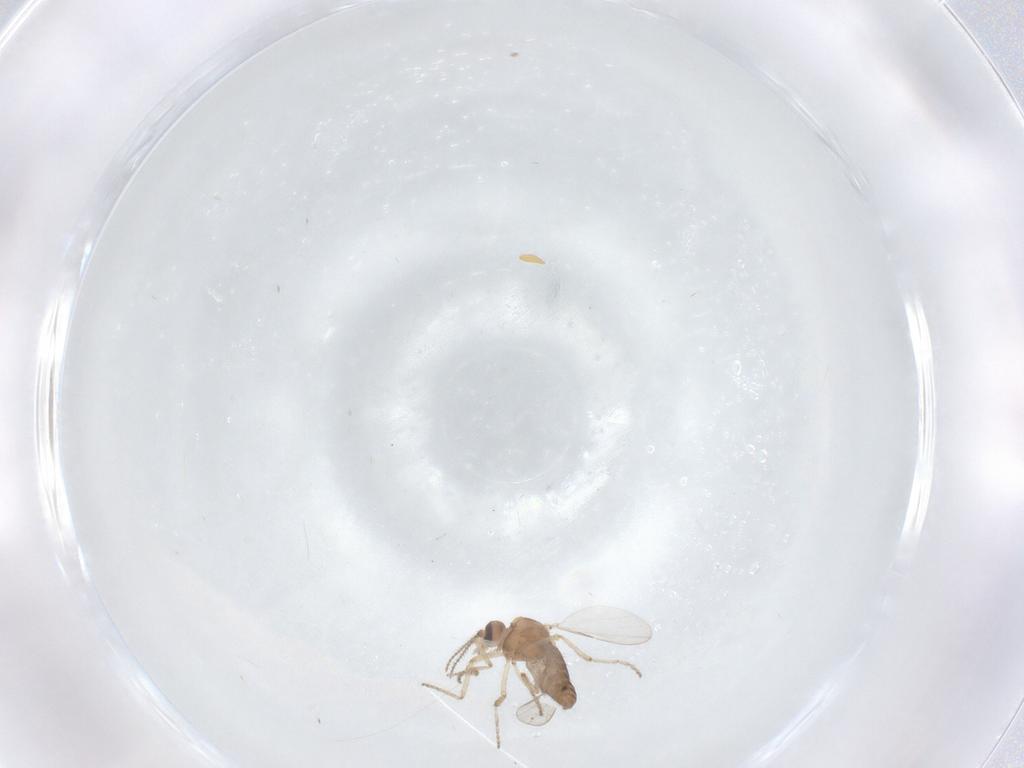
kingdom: Animalia
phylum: Arthropoda
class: Insecta
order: Diptera
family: Ceratopogonidae
